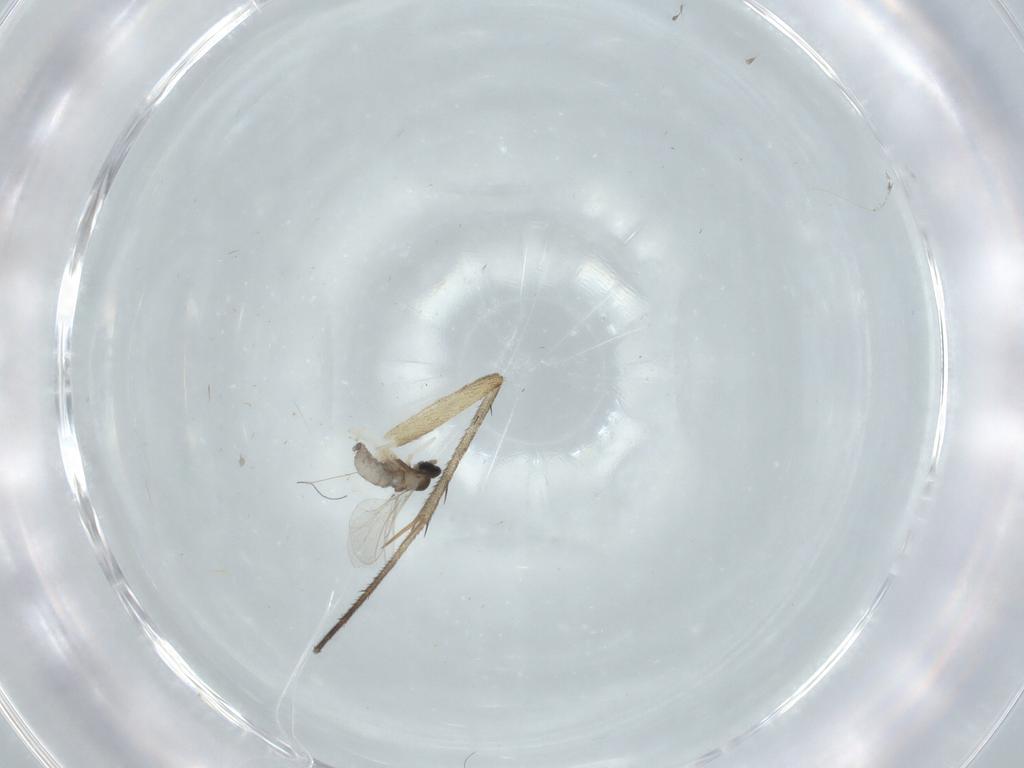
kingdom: Animalia
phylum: Arthropoda
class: Insecta
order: Diptera
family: Cecidomyiidae
